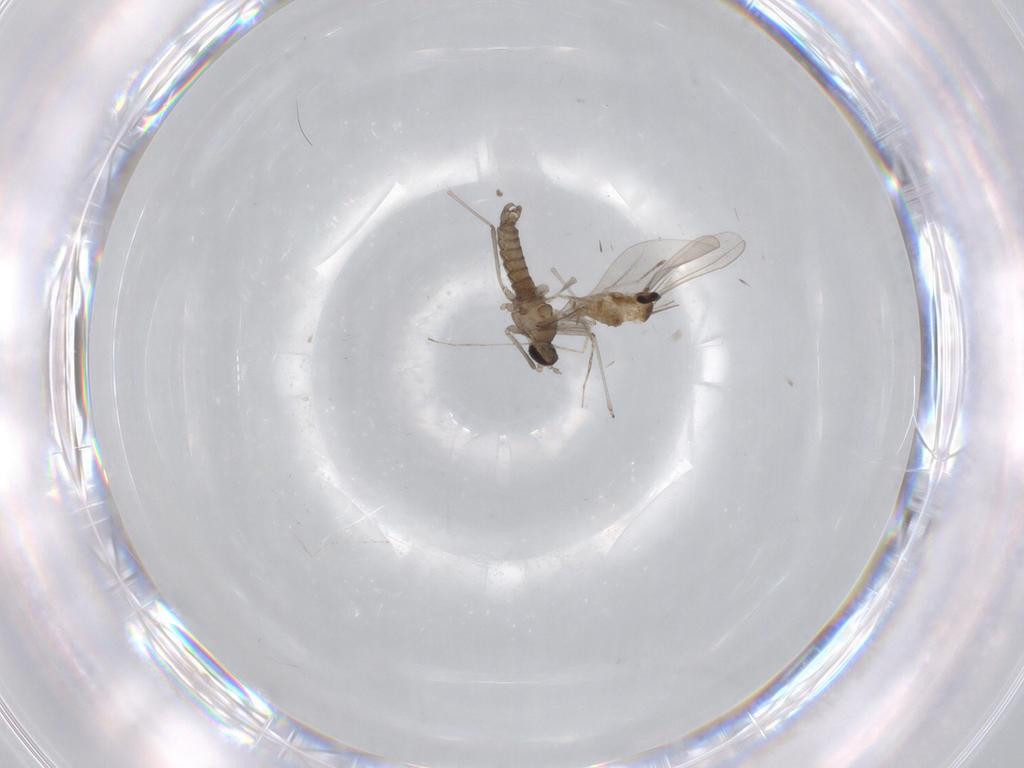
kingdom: Animalia
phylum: Arthropoda
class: Insecta
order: Diptera
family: Cecidomyiidae
